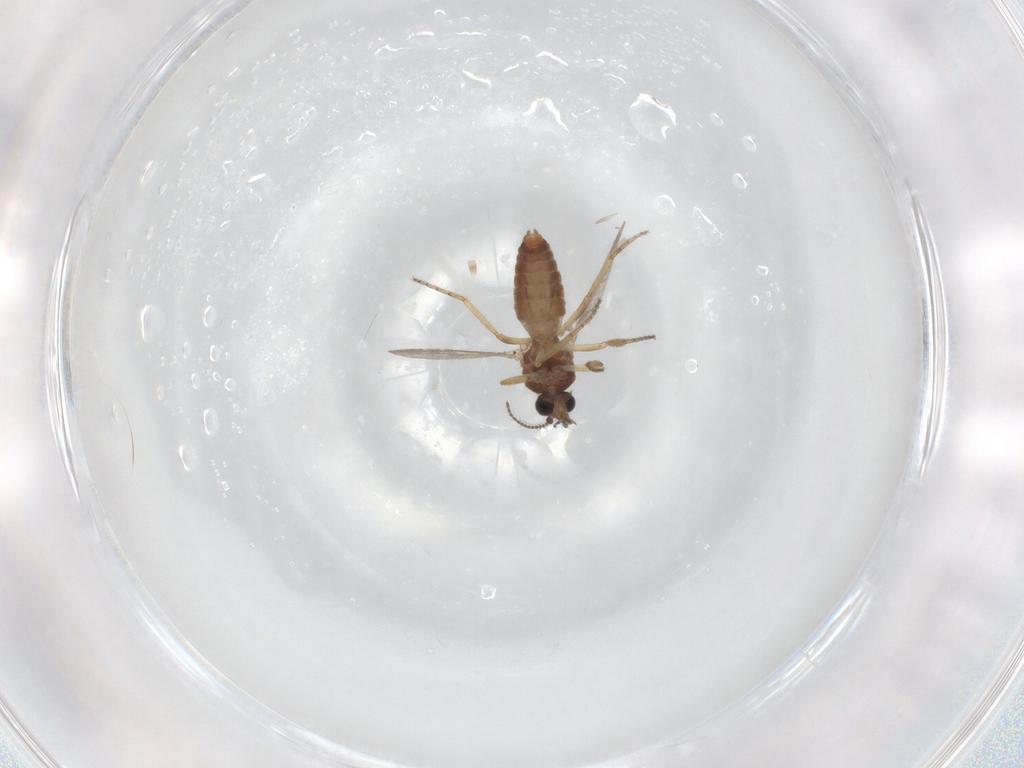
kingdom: Animalia
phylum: Arthropoda
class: Insecta
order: Diptera
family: Ceratopogonidae
